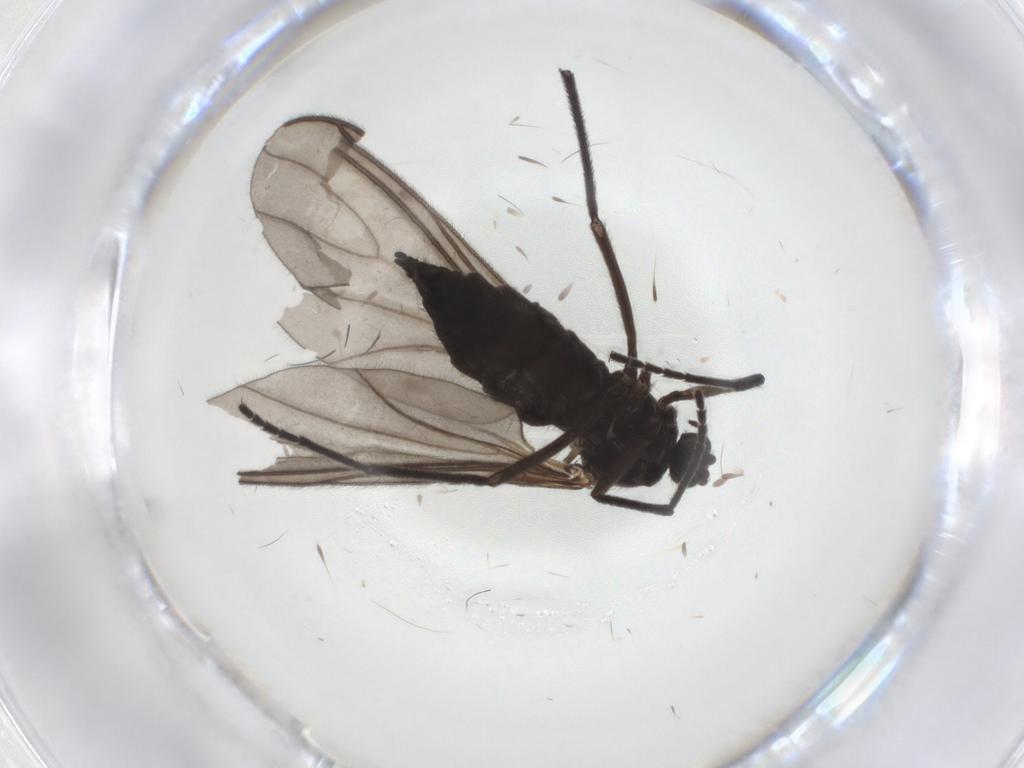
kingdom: Animalia
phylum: Arthropoda
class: Insecta
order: Diptera
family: Sciaridae
